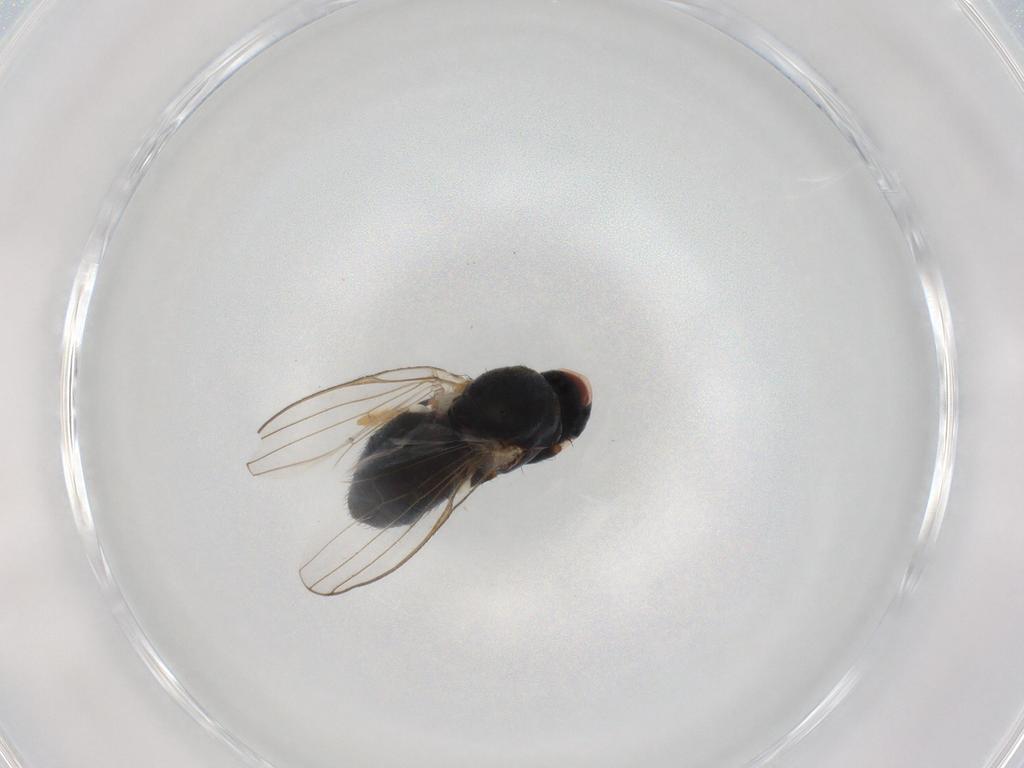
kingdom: Animalia
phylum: Arthropoda
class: Insecta
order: Diptera
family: Chamaemyiidae
